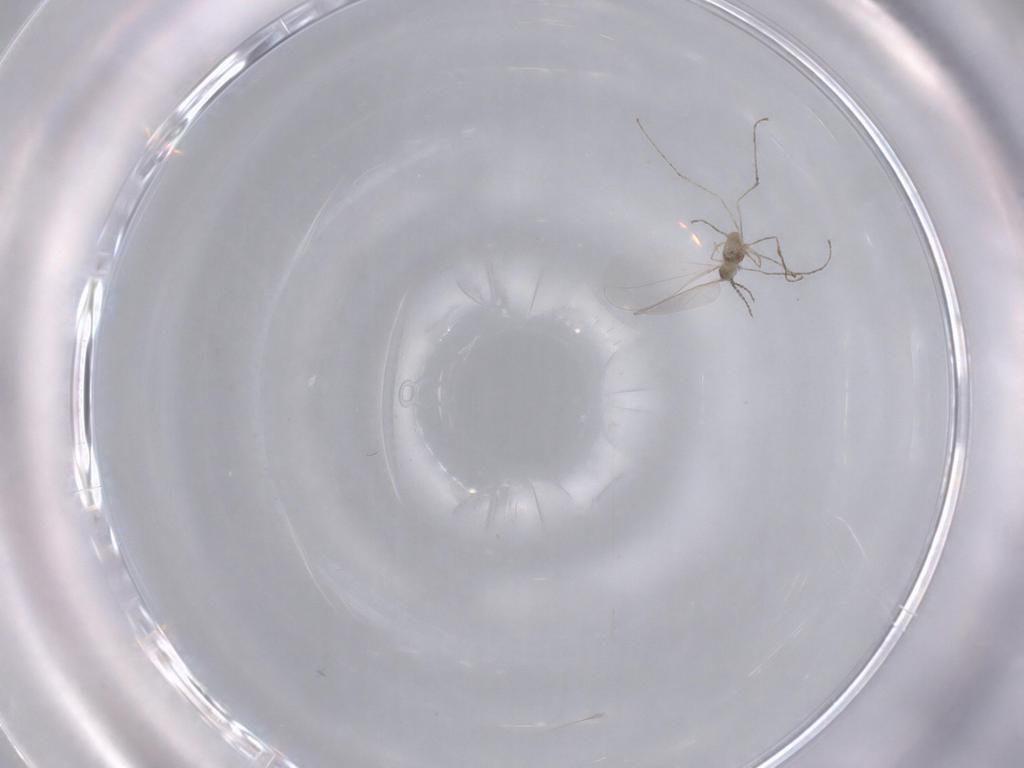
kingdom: Animalia
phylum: Arthropoda
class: Insecta
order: Diptera
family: Stratiomyidae
